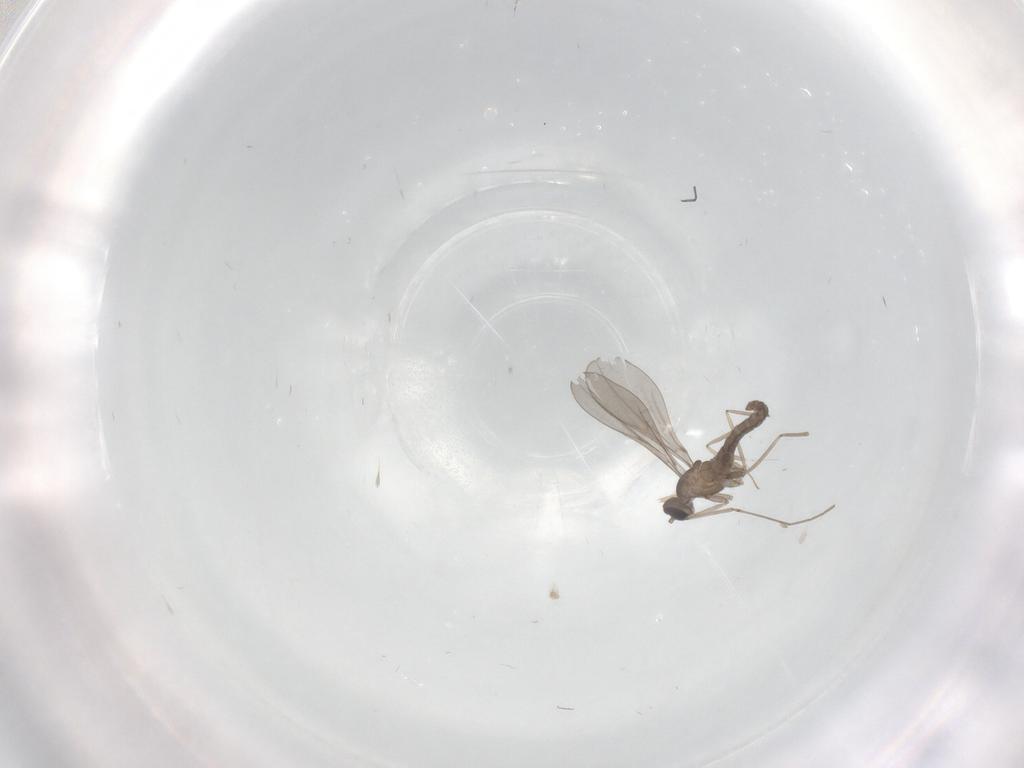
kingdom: Animalia
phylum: Arthropoda
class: Insecta
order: Diptera
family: Cecidomyiidae
